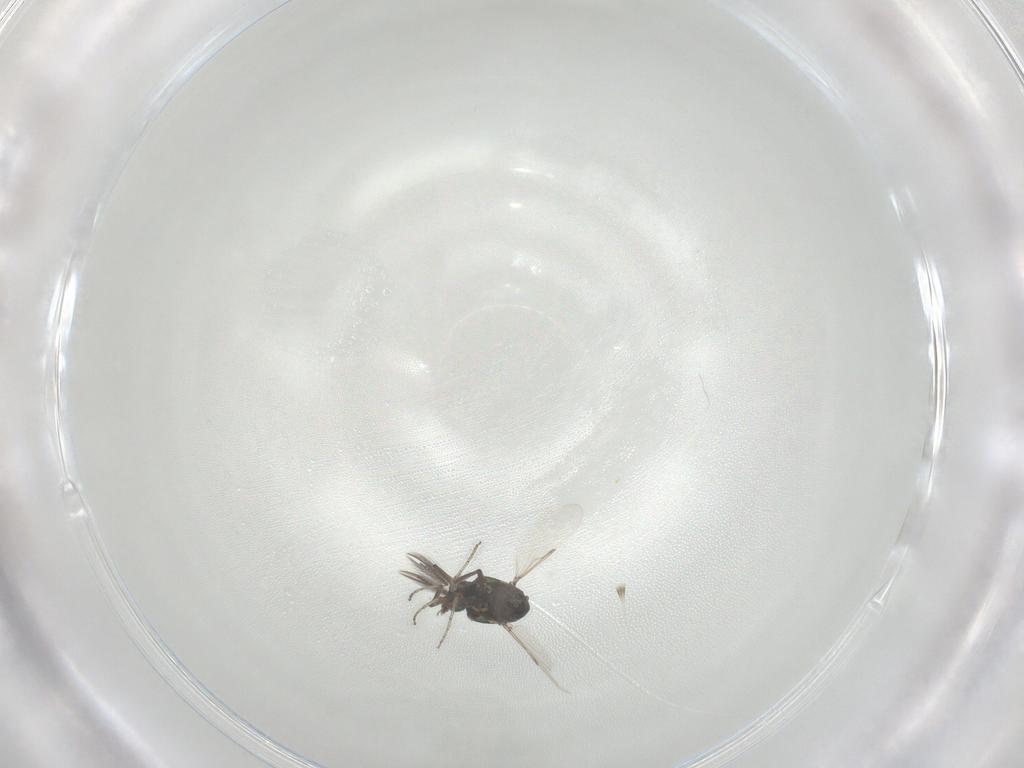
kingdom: Animalia
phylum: Arthropoda
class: Insecta
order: Diptera
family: Ceratopogonidae
